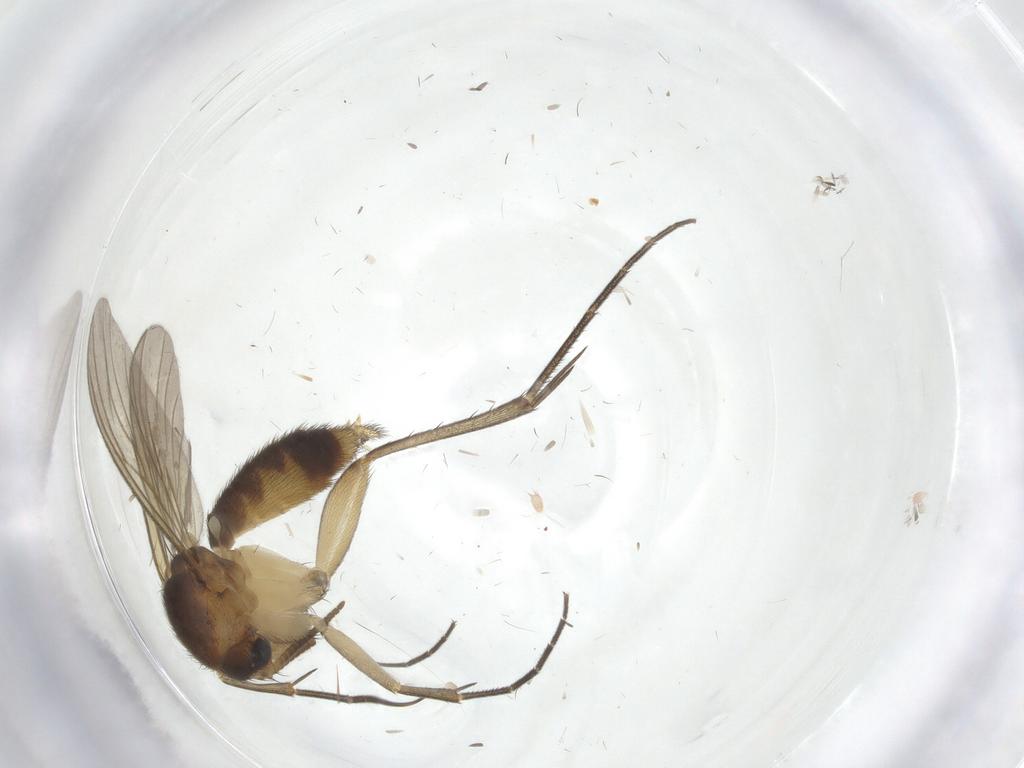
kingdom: Animalia
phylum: Arthropoda
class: Insecta
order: Diptera
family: Mycetophilidae
